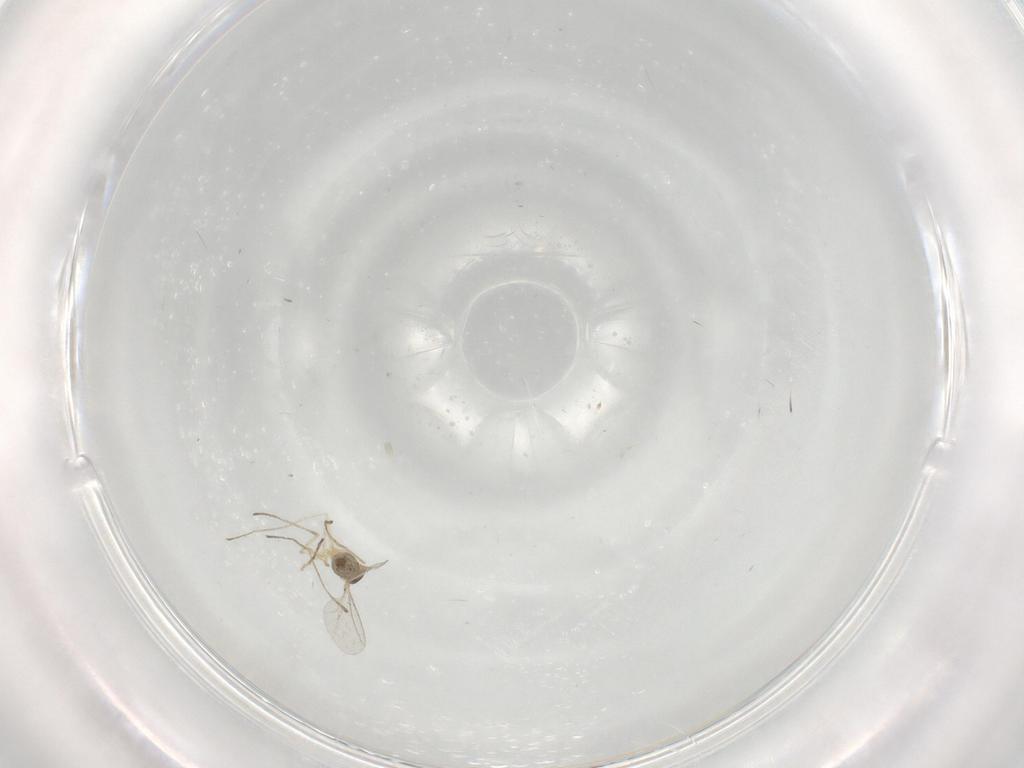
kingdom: Animalia
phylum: Arthropoda
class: Insecta
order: Diptera
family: Cecidomyiidae
